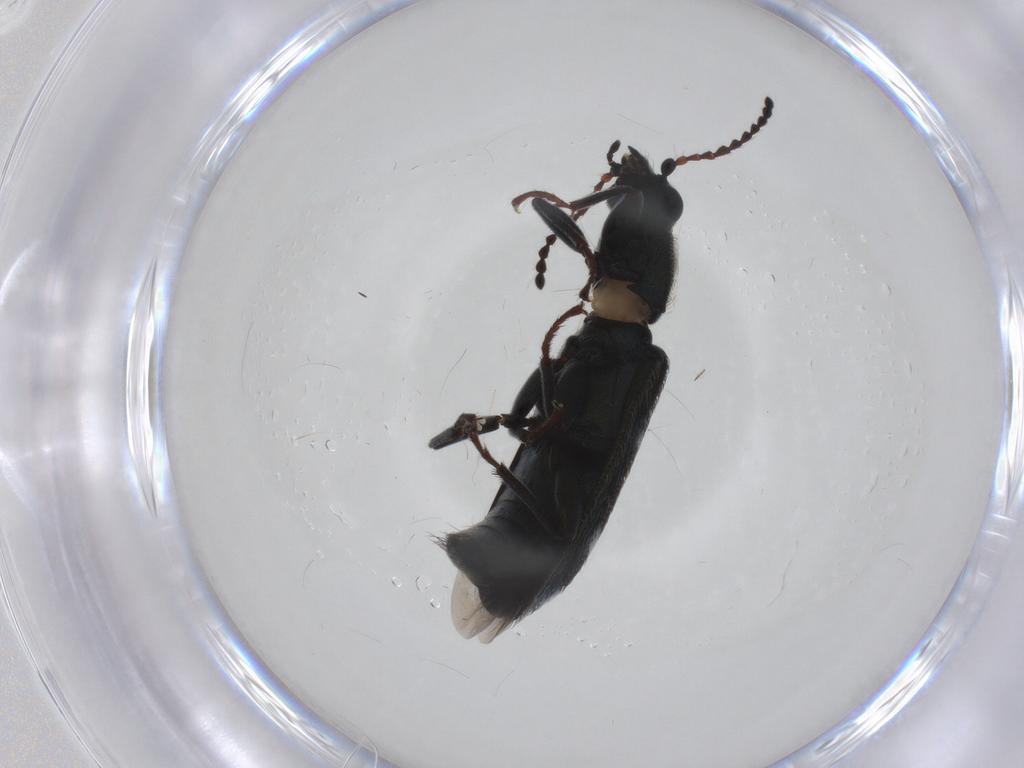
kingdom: Animalia
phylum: Arthropoda
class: Insecta
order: Coleoptera
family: Melyridae
